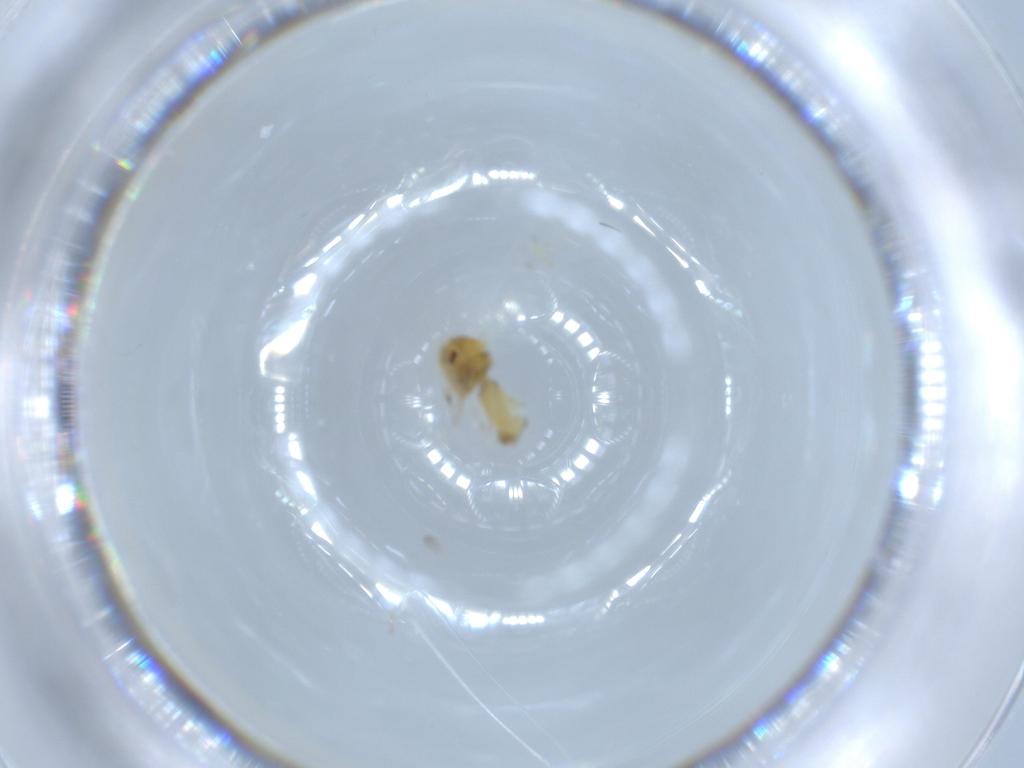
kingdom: Animalia
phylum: Arthropoda
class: Insecta
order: Hemiptera
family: Aleyrodidae
